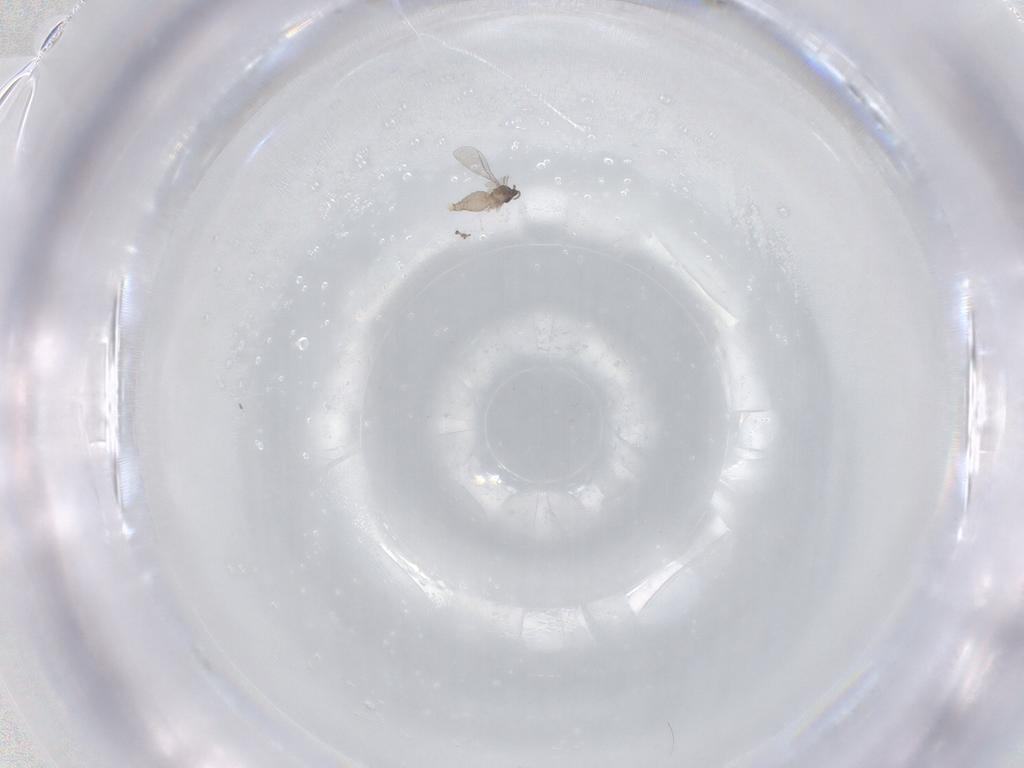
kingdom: Animalia
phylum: Arthropoda
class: Insecta
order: Diptera
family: Cecidomyiidae
